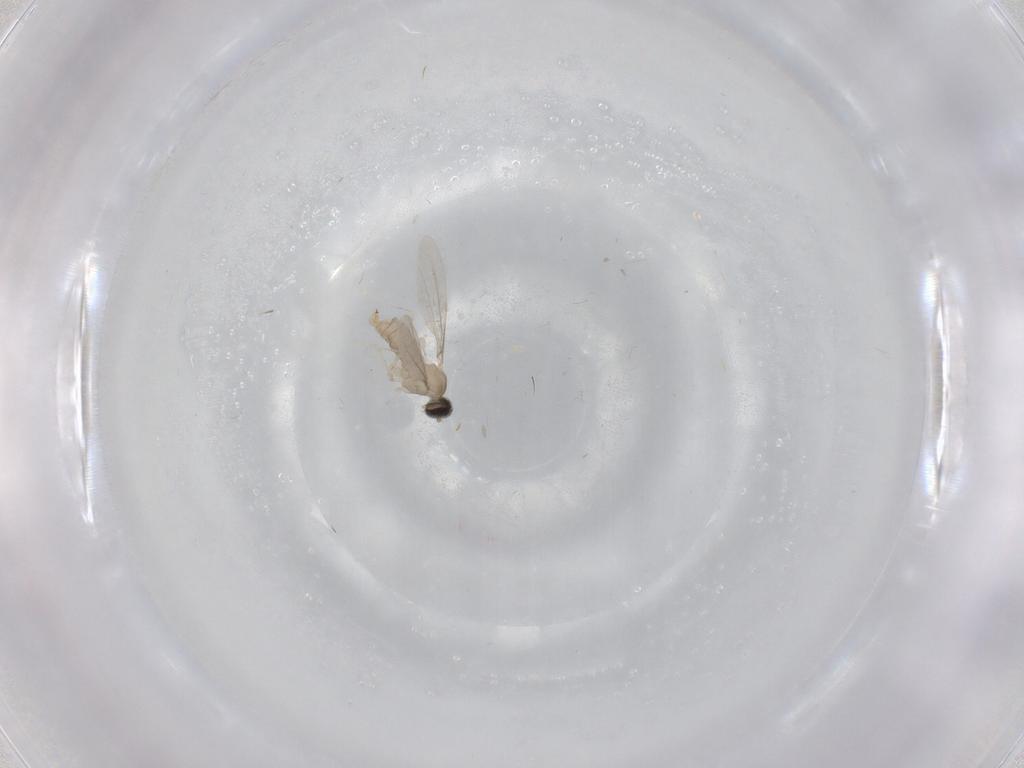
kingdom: Animalia
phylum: Arthropoda
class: Insecta
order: Diptera
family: Cecidomyiidae
